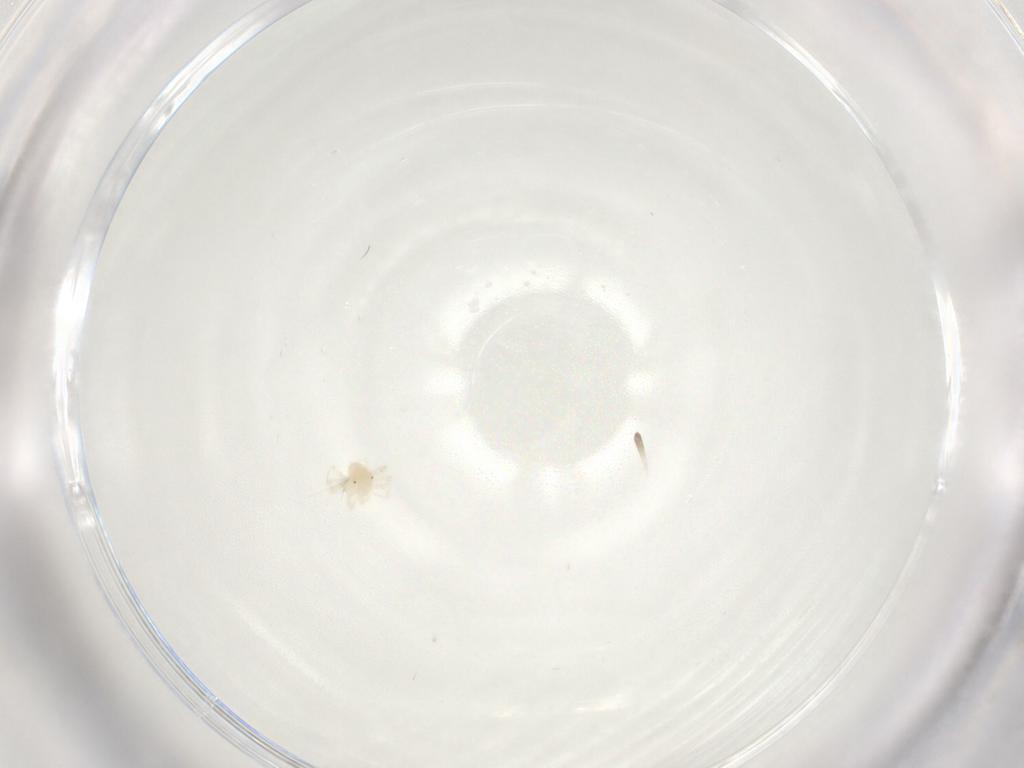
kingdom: Animalia
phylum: Arthropoda
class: Arachnida
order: Trombidiformes
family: Anystidae
